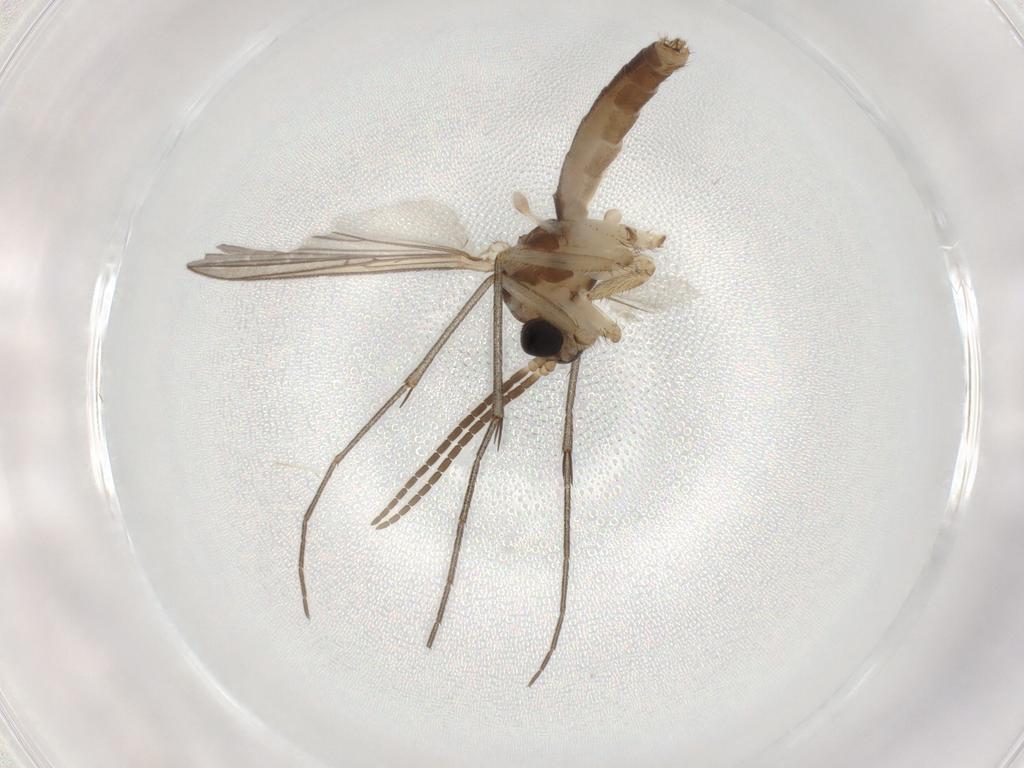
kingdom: Animalia
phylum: Arthropoda
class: Insecta
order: Diptera
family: Mycetophilidae
